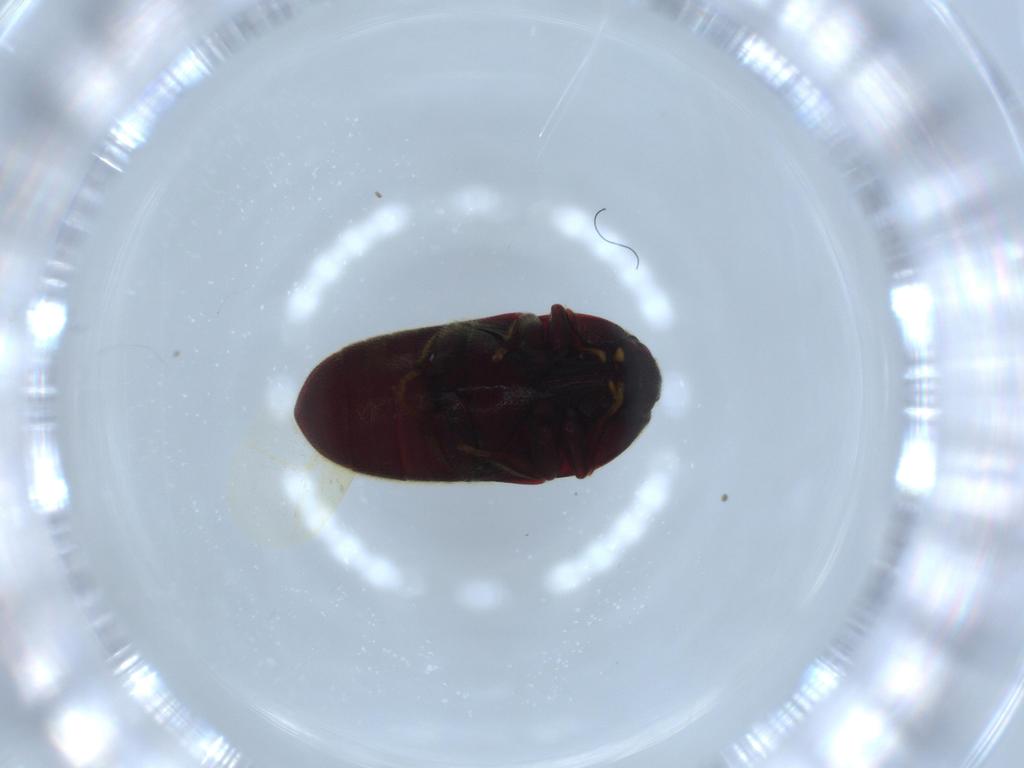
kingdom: Animalia
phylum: Arthropoda
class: Insecta
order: Coleoptera
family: Throscidae
